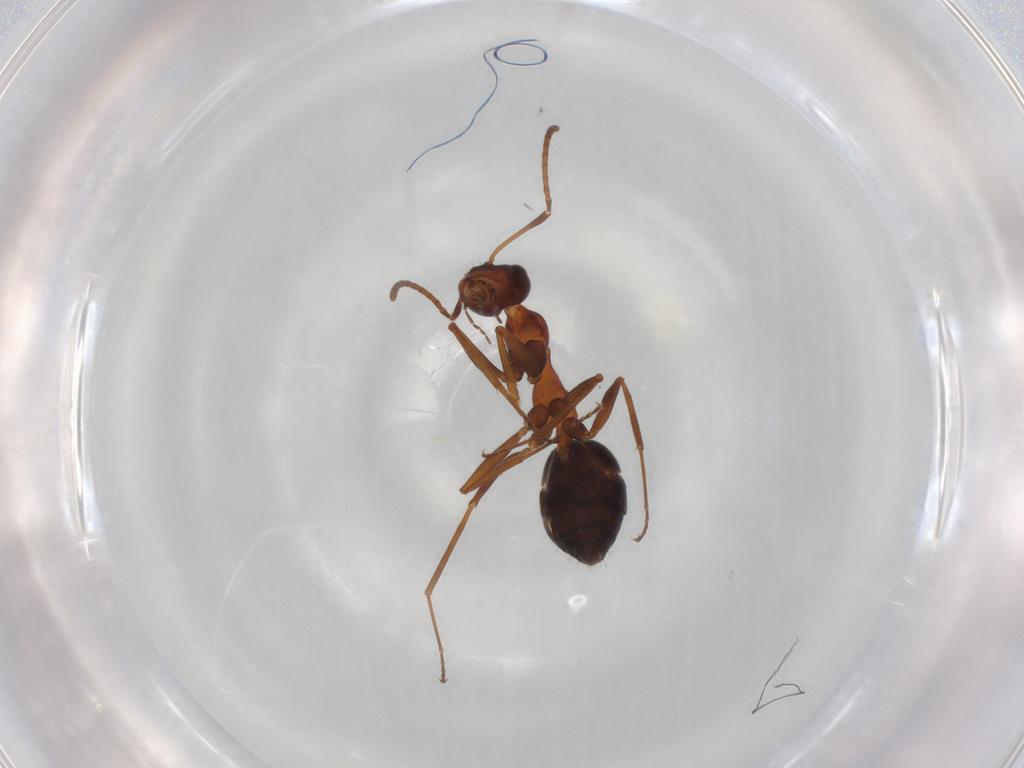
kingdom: Animalia
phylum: Arthropoda
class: Insecta
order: Hymenoptera
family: Formicidae
